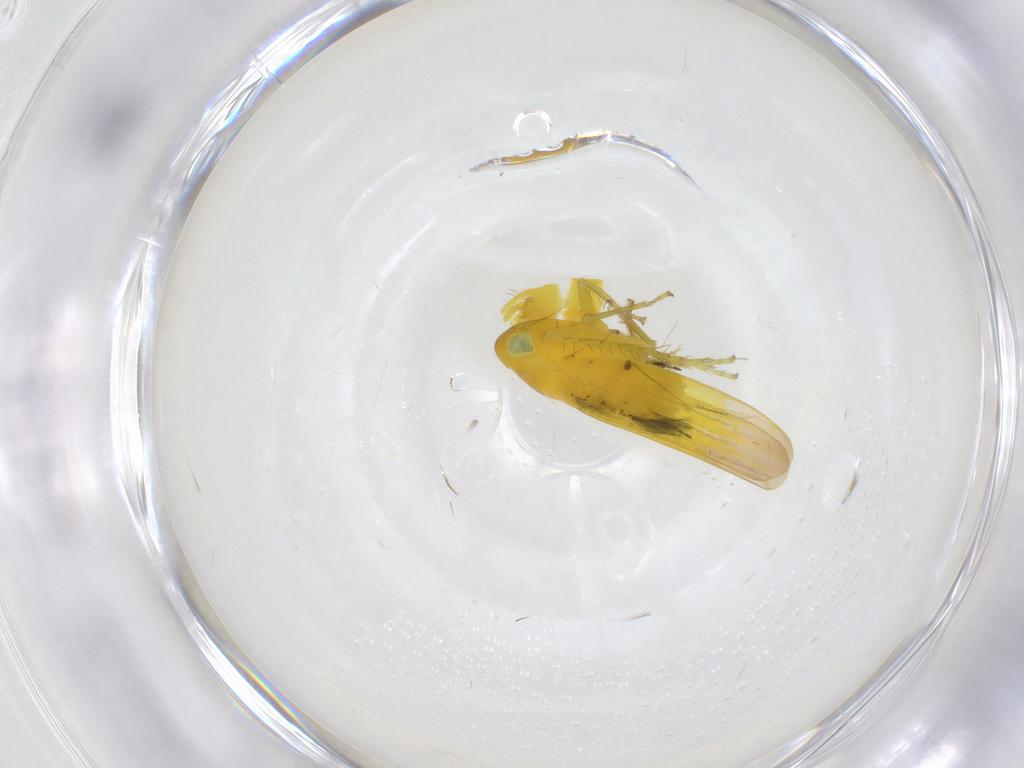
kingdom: Animalia
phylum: Arthropoda
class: Insecta
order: Hemiptera
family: Cicadellidae
